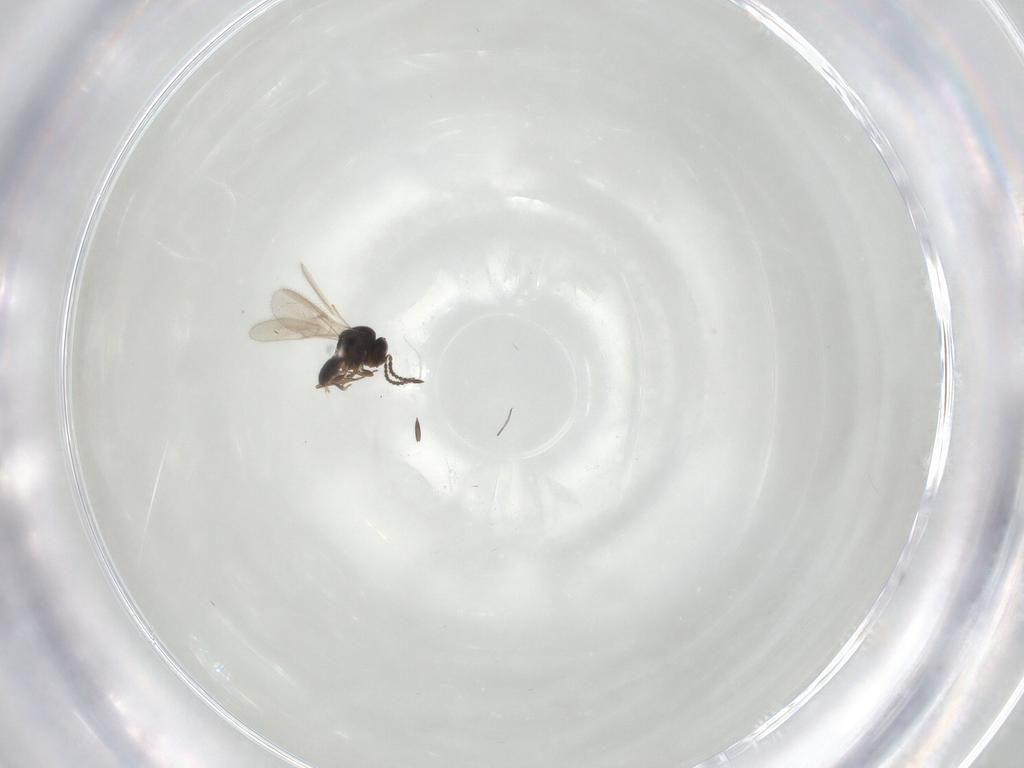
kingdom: Animalia
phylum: Arthropoda
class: Insecta
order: Hymenoptera
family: Scelionidae
